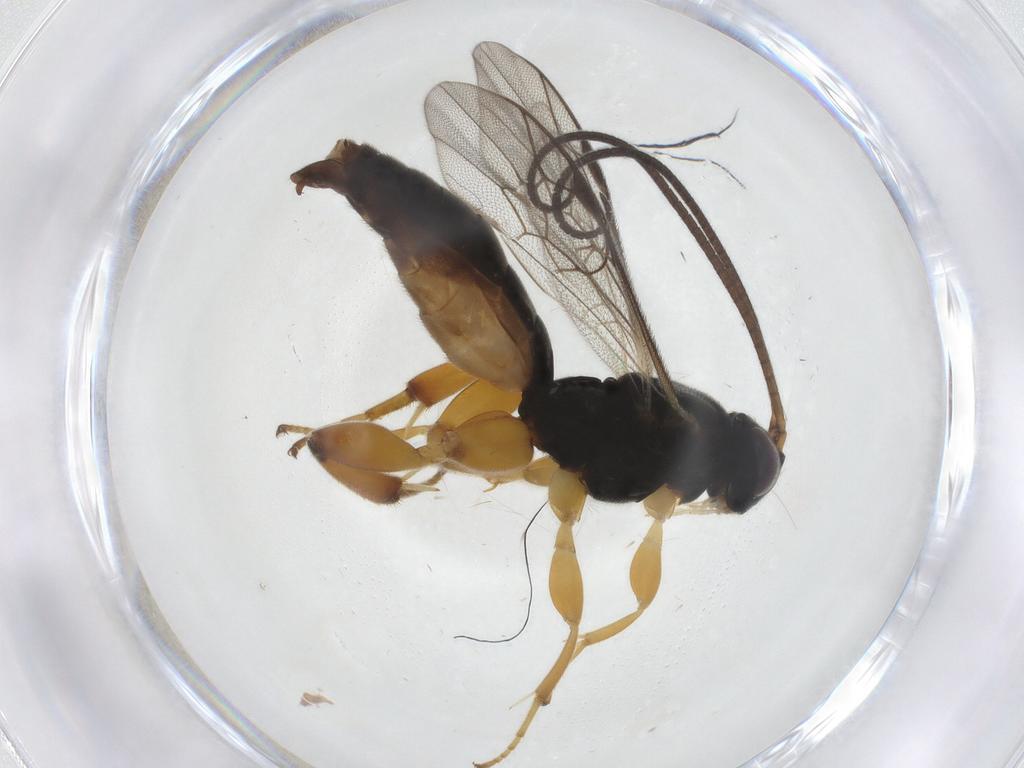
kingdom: Animalia
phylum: Arthropoda
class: Insecta
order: Hymenoptera
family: Ichneumonidae
